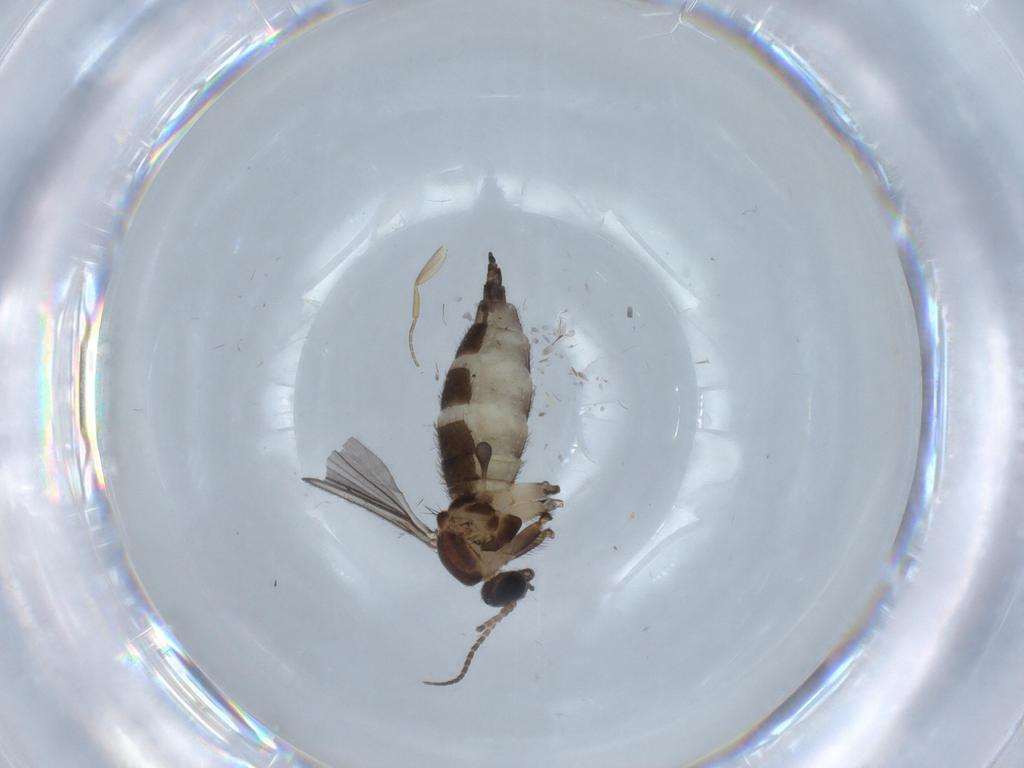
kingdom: Animalia
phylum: Arthropoda
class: Insecta
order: Diptera
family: Sciaridae
